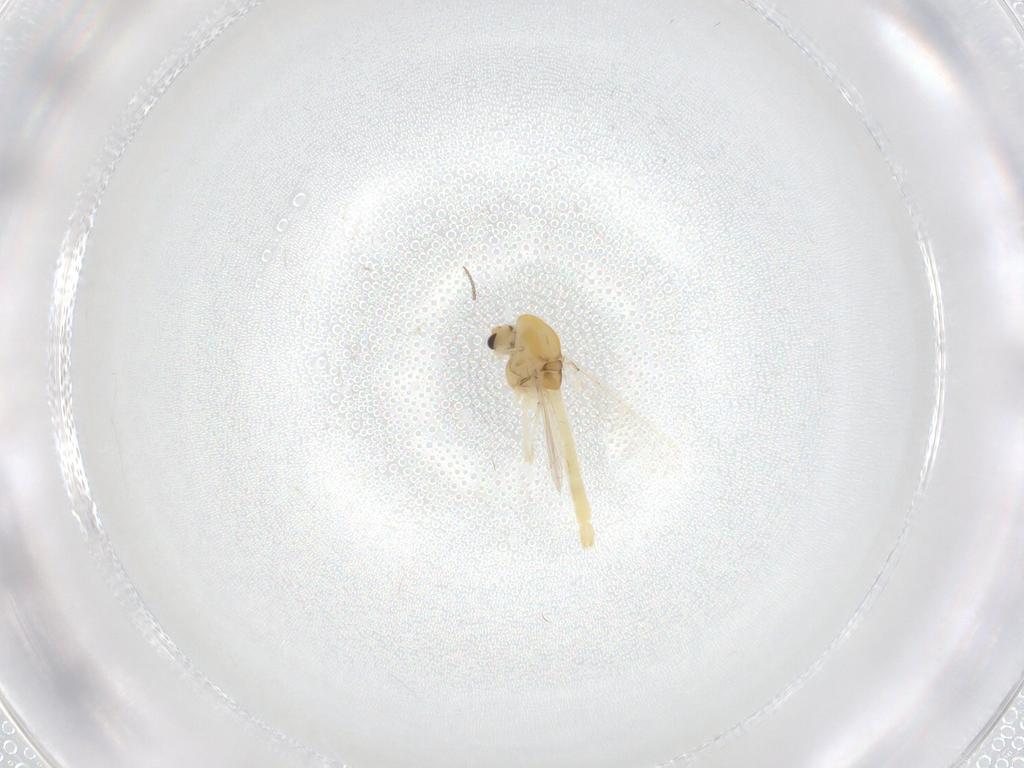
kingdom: Animalia
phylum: Arthropoda
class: Insecta
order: Diptera
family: Chironomidae
